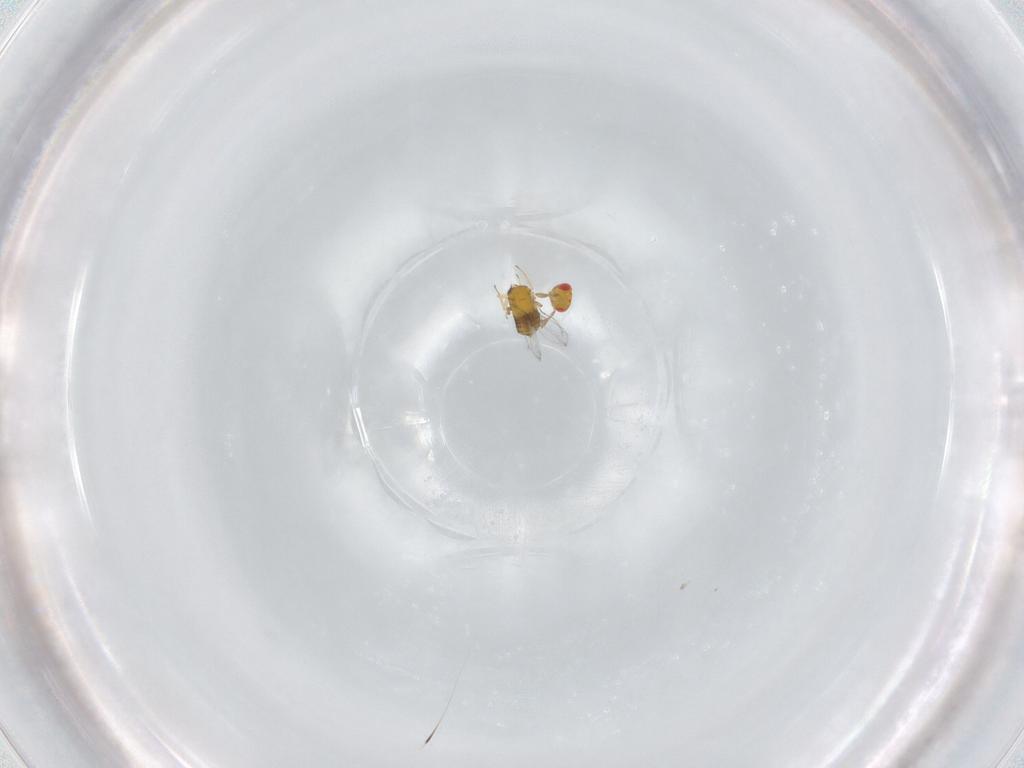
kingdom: Animalia
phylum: Arthropoda
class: Insecta
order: Hymenoptera
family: Trichogrammatidae
